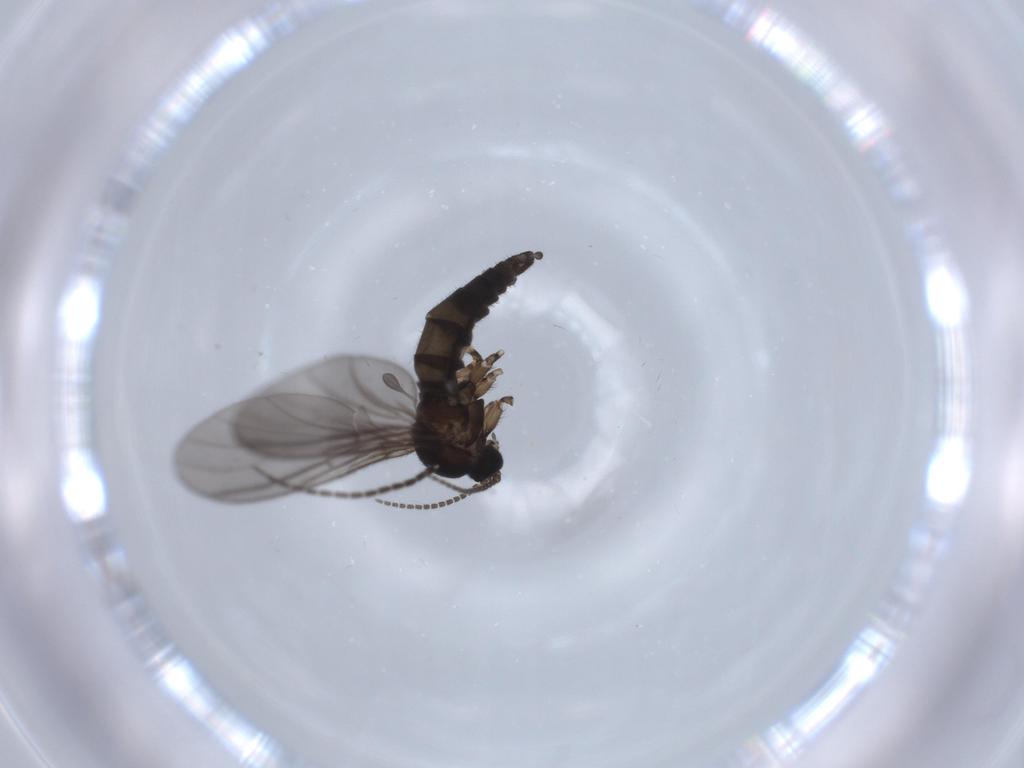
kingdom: Animalia
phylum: Arthropoda
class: Insecta
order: Diptera
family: Sciaridae
